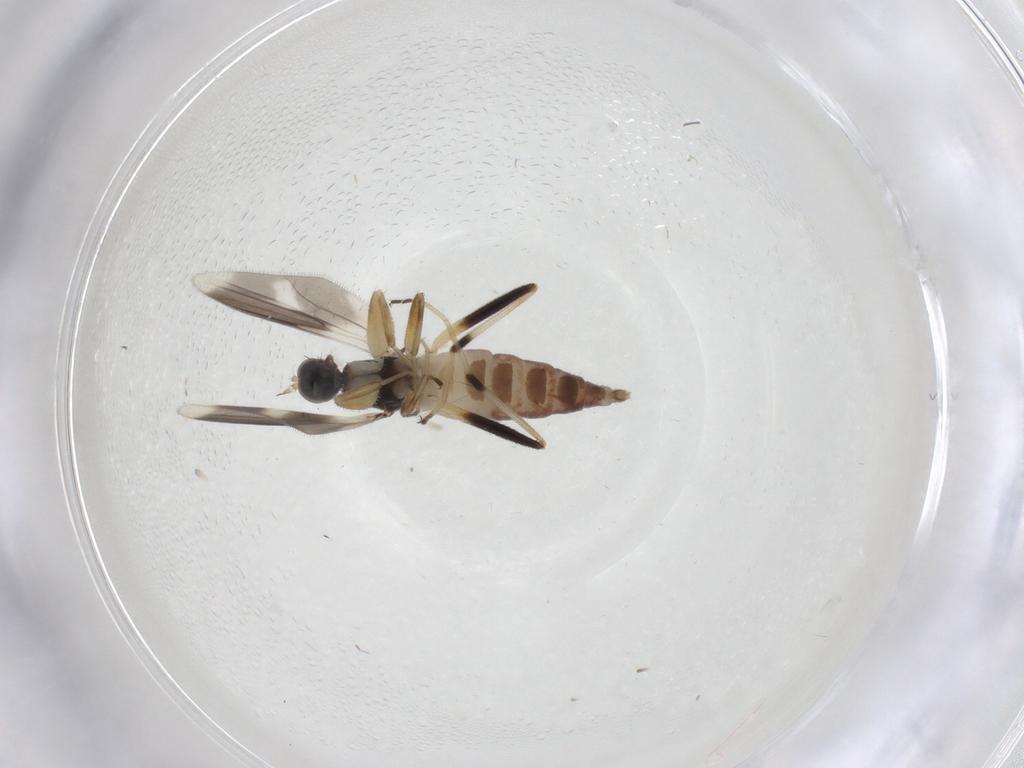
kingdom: Animalia
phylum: Arthropoda
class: Insecta
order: Diptera
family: Hybotidae
